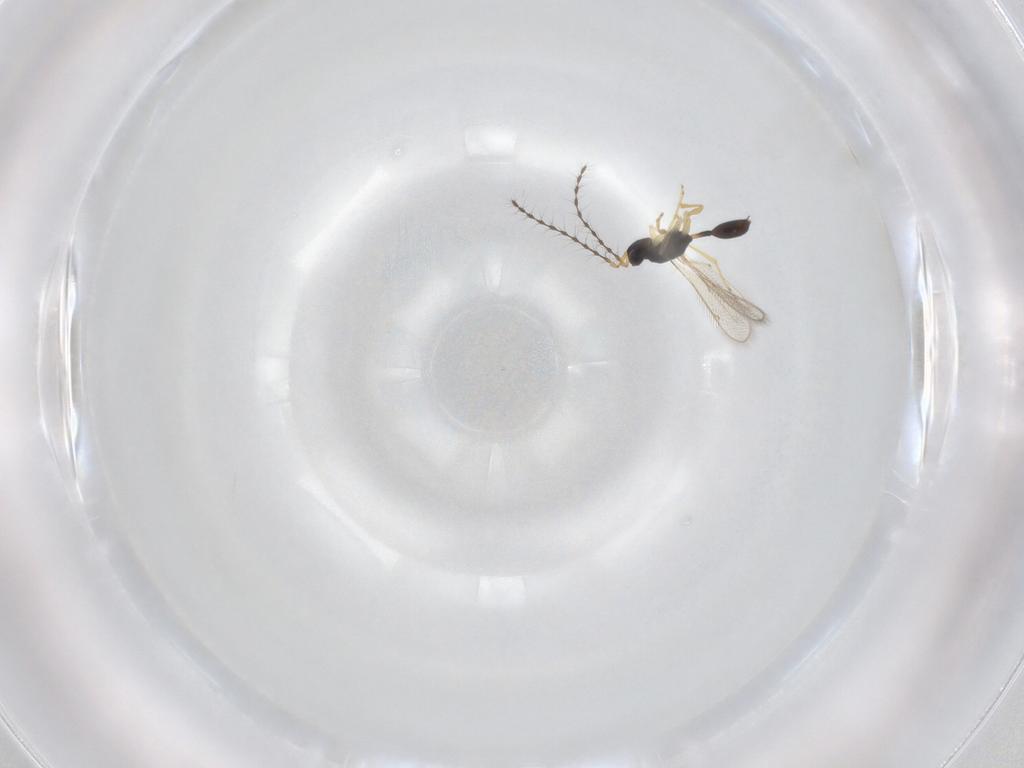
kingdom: Animalia
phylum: Arthropoda
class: Insecta
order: Hymenoptera
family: Diparidae
